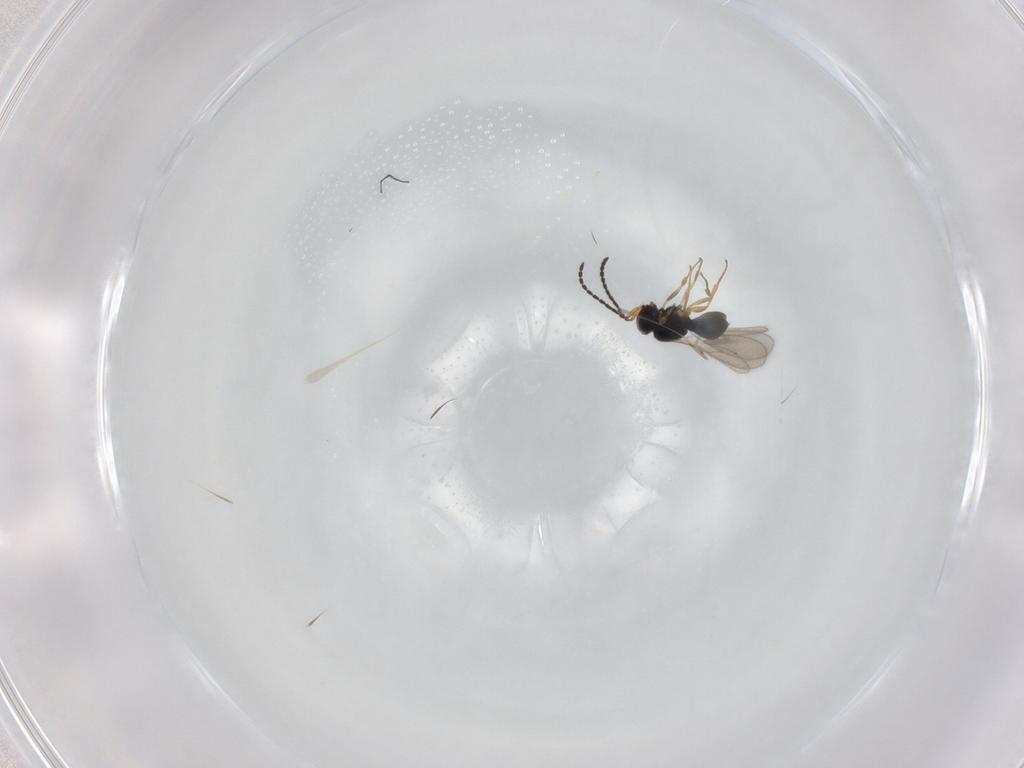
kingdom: Animalia
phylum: Arthropoda
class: Insecta
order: Hymenoptera
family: Scelionidae
